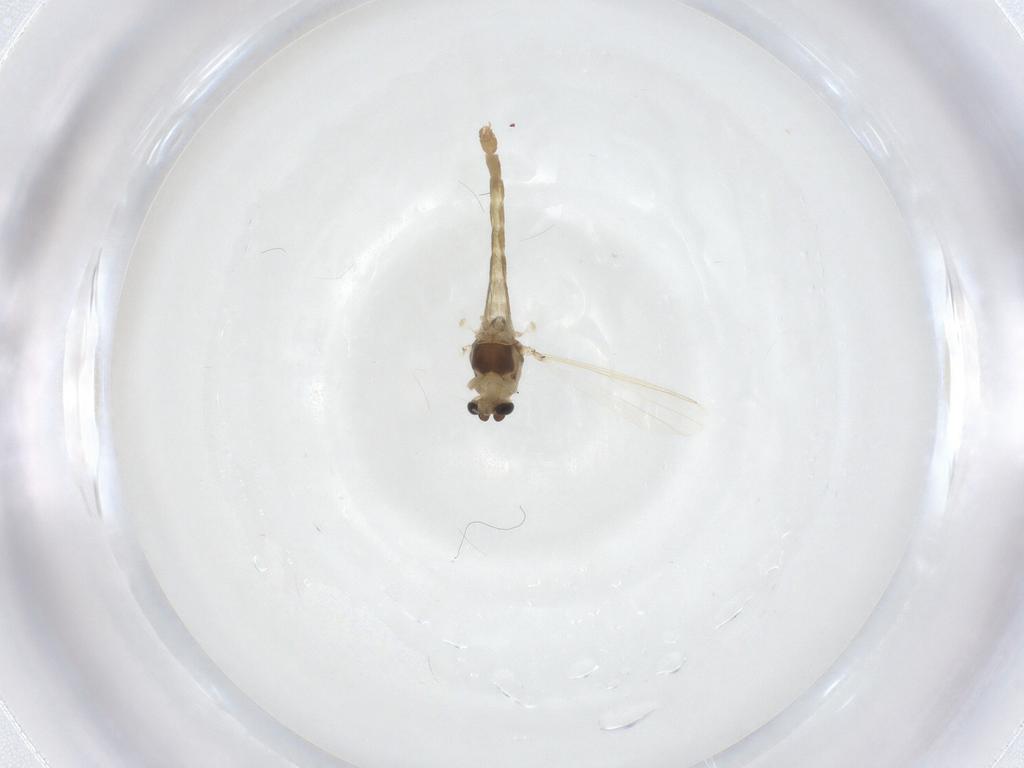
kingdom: Animalia
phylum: Arthropoda
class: Insecta
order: Diptera
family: Chironomidae
